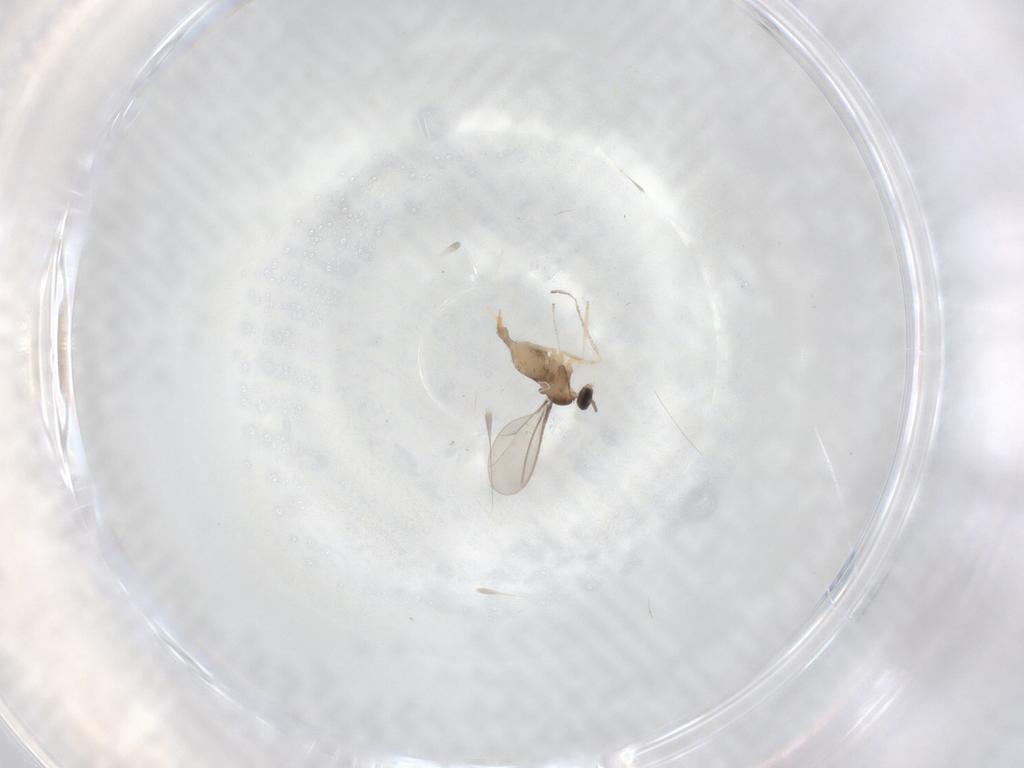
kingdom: Animalia
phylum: Arthropoda
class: Insecta
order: Diptera
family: Cecidomyiidae
